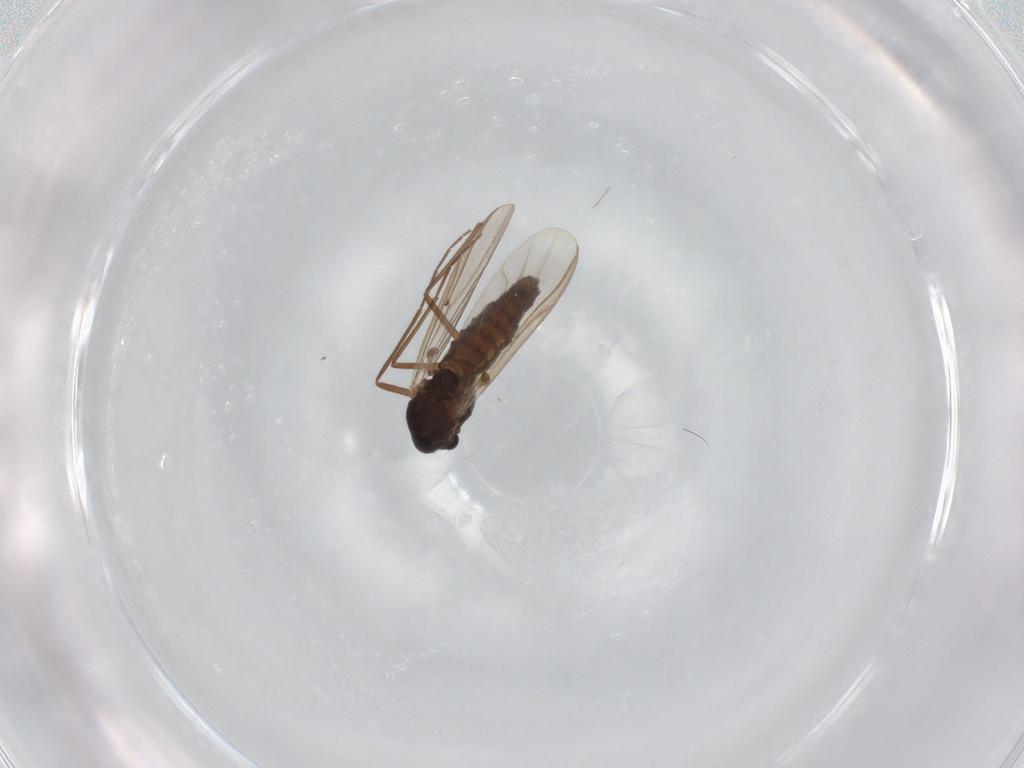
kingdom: Animalia
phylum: Arthropoda
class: Insecta
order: Diptera
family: Chironomidae
